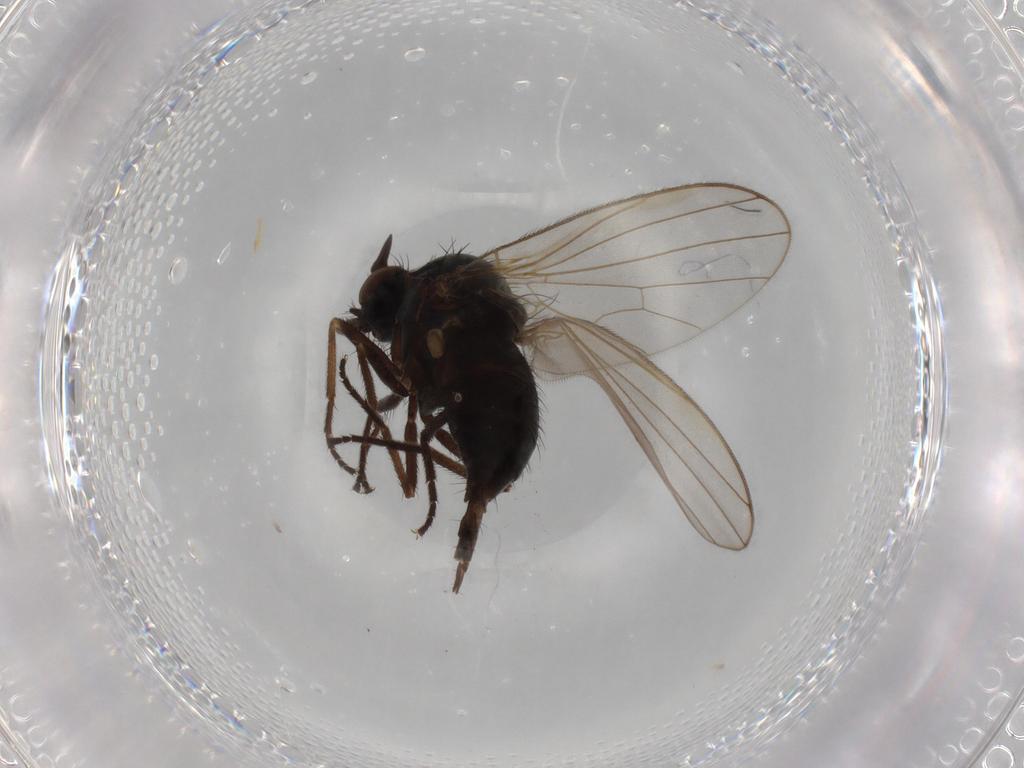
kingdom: Animalia
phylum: Arthropoda
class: Insecta
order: Diptera
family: Dolichopodidae
